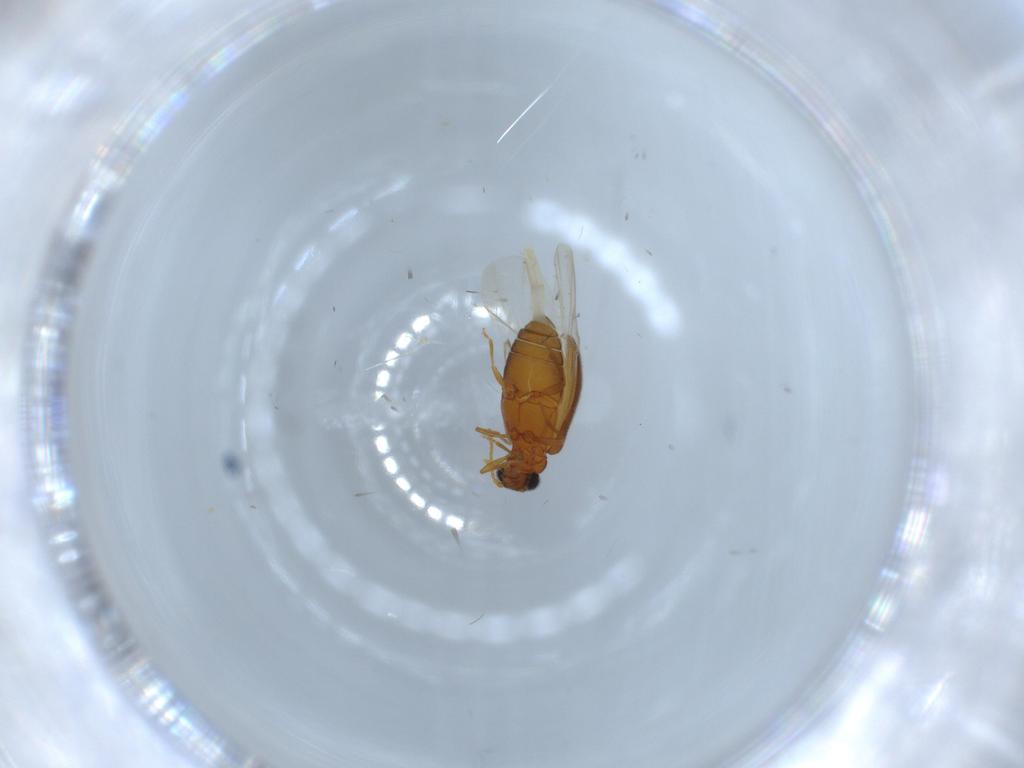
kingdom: Animalia
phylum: Arthropoda
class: Insecta
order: Coleoptera
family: Aderidae
